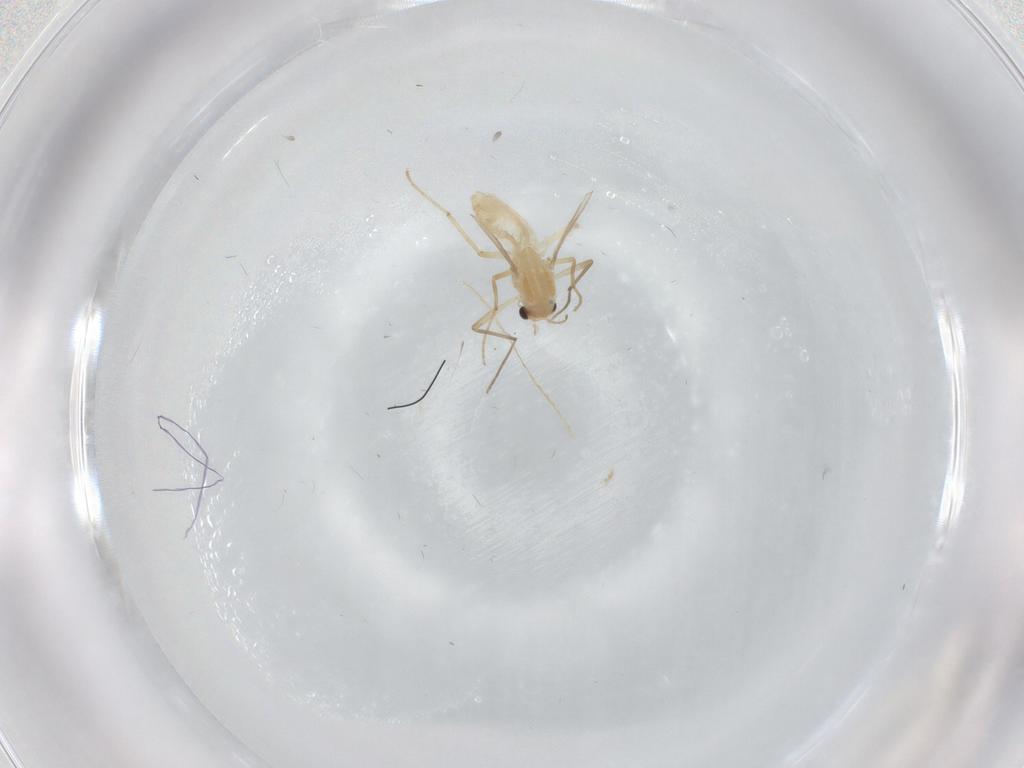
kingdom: Animalia
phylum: Arthropoda
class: Insecta
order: Diptera
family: Chironomidae
